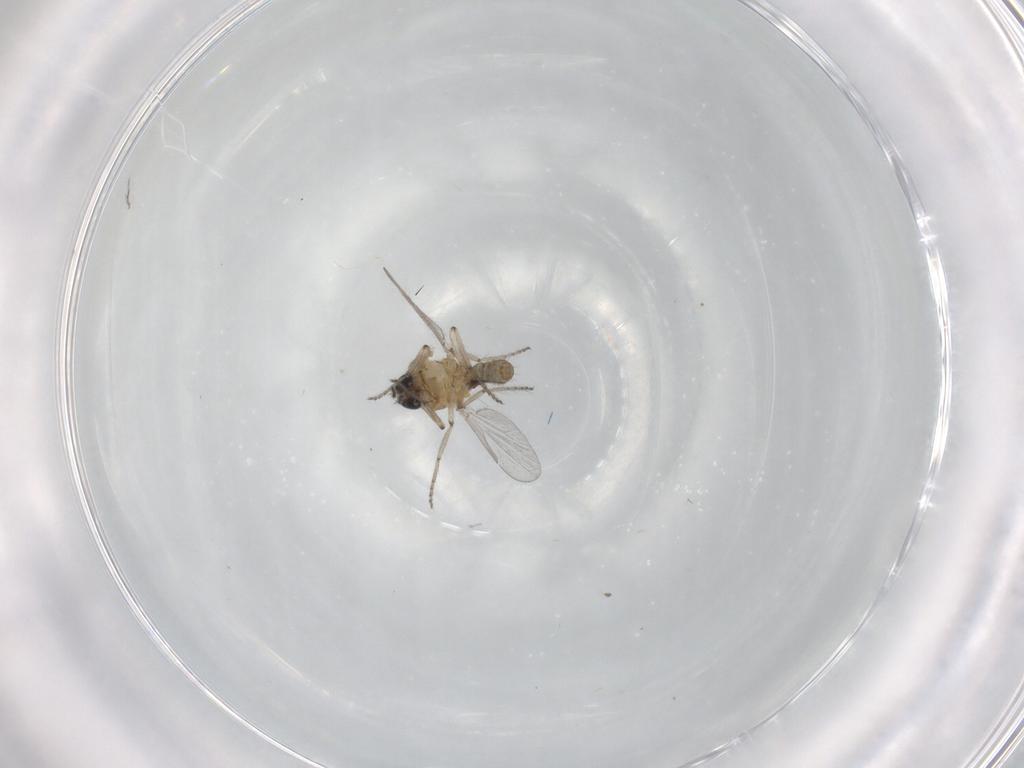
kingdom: Animalia
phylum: Arthropoda
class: Insecta
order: Diptera
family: Ceratopogonidae
